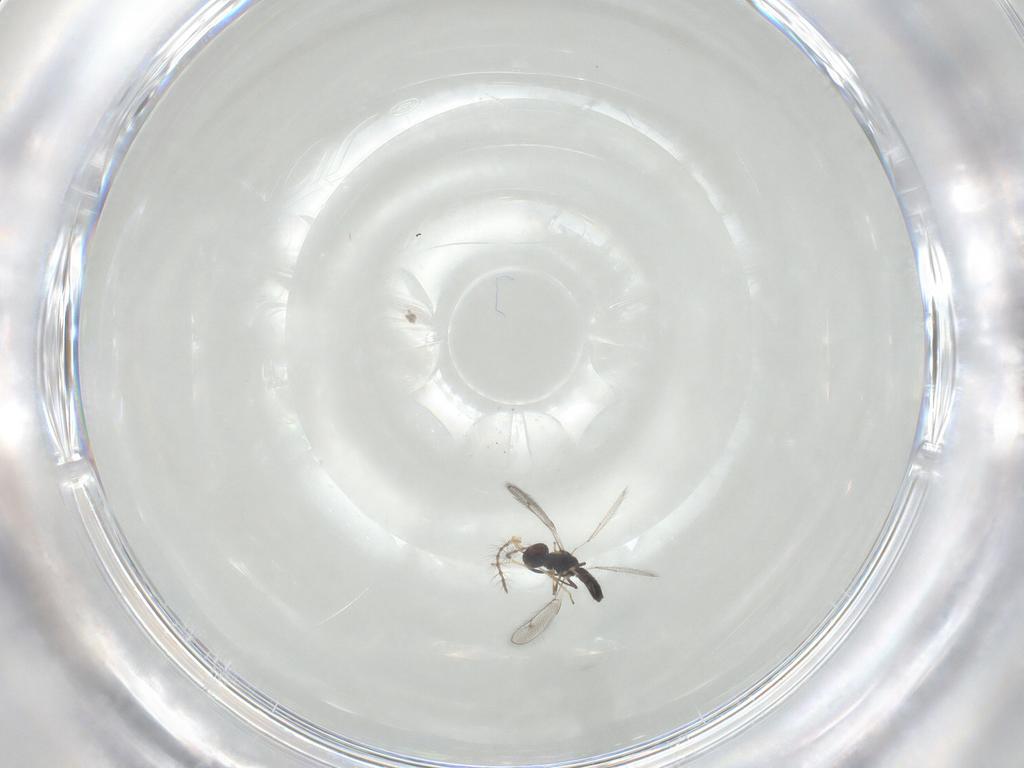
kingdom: Animalia
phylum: Arthropoda
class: Insecta
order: Hymenoptera
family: Pteromalidae
